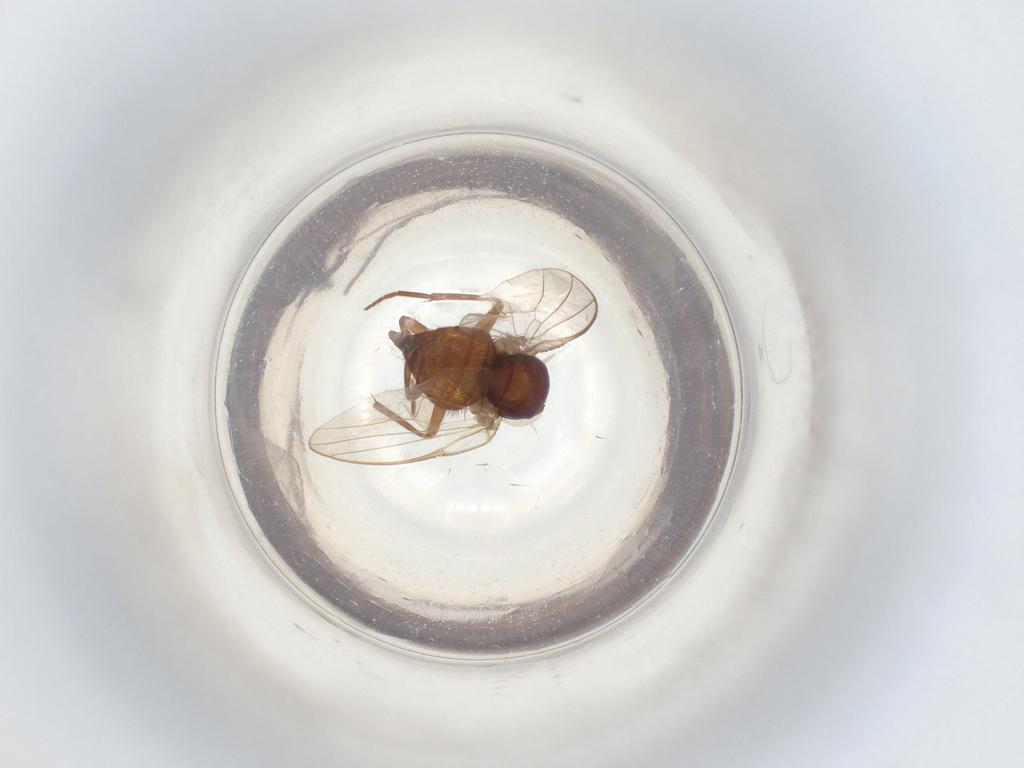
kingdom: Animalia
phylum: Arthropoda
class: Insecta
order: Diptera
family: Agromyzidae
